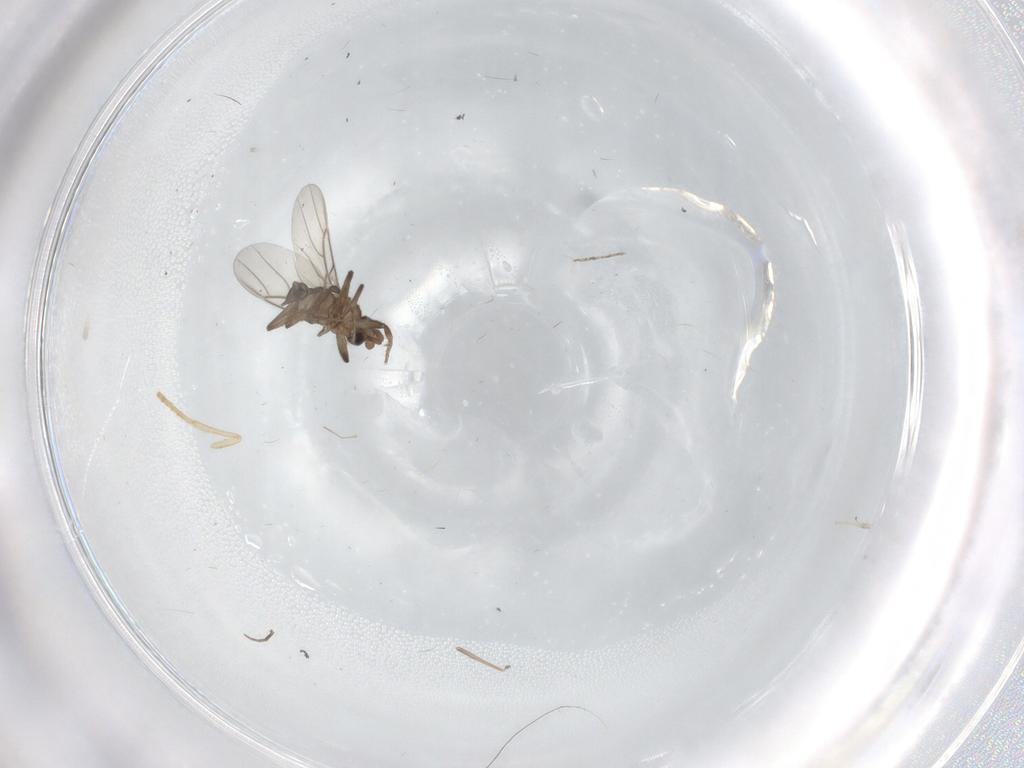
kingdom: Animalia
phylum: Arthropoda
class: Insecta
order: Diptera
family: Psychodidae
